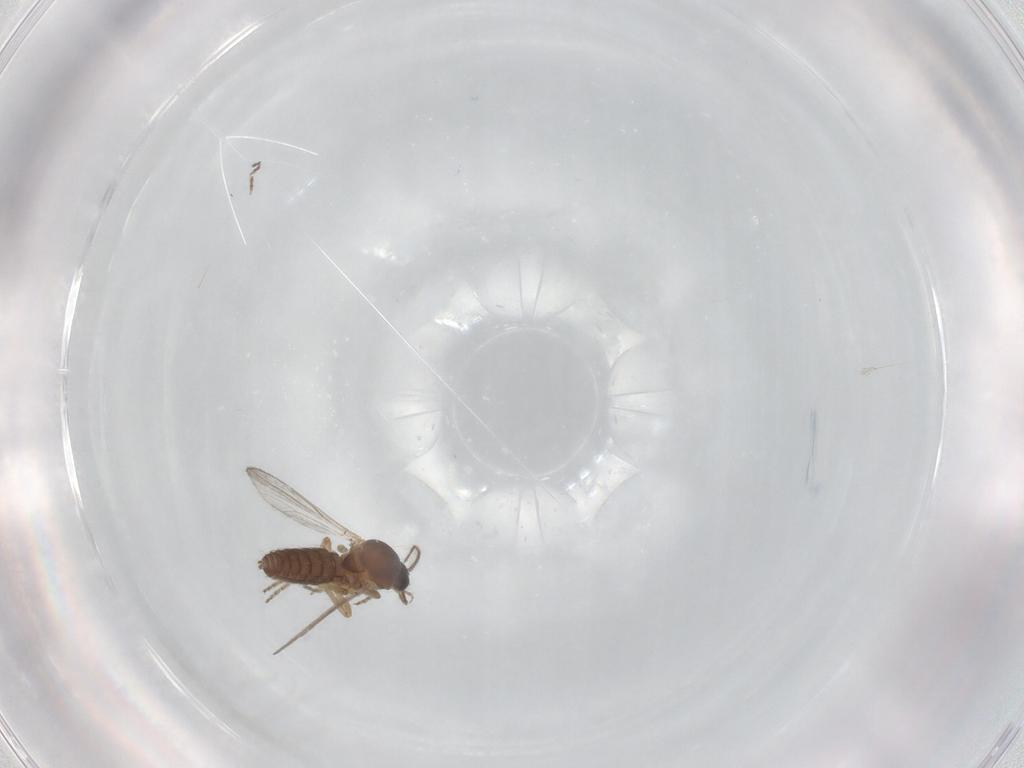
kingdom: Animalia
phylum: Arthropoda
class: Insecta
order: Diptera
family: Ceratopogonidae
